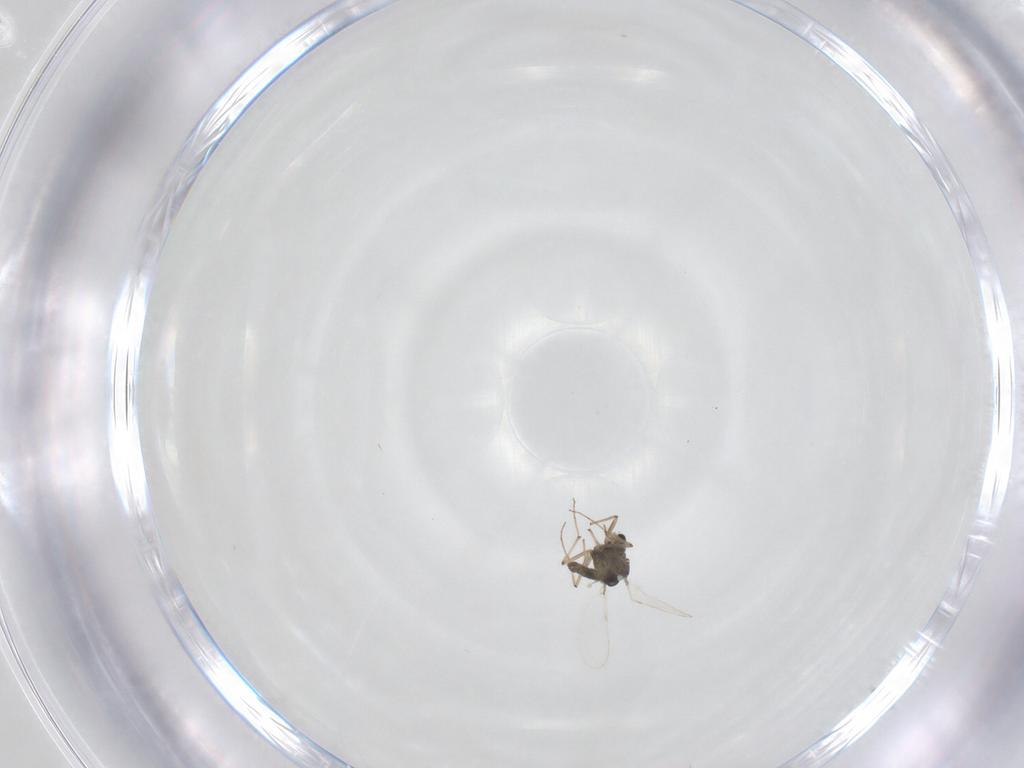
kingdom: Animalia
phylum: Arthropoda
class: Insecta
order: Diptera
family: Chironomidae
